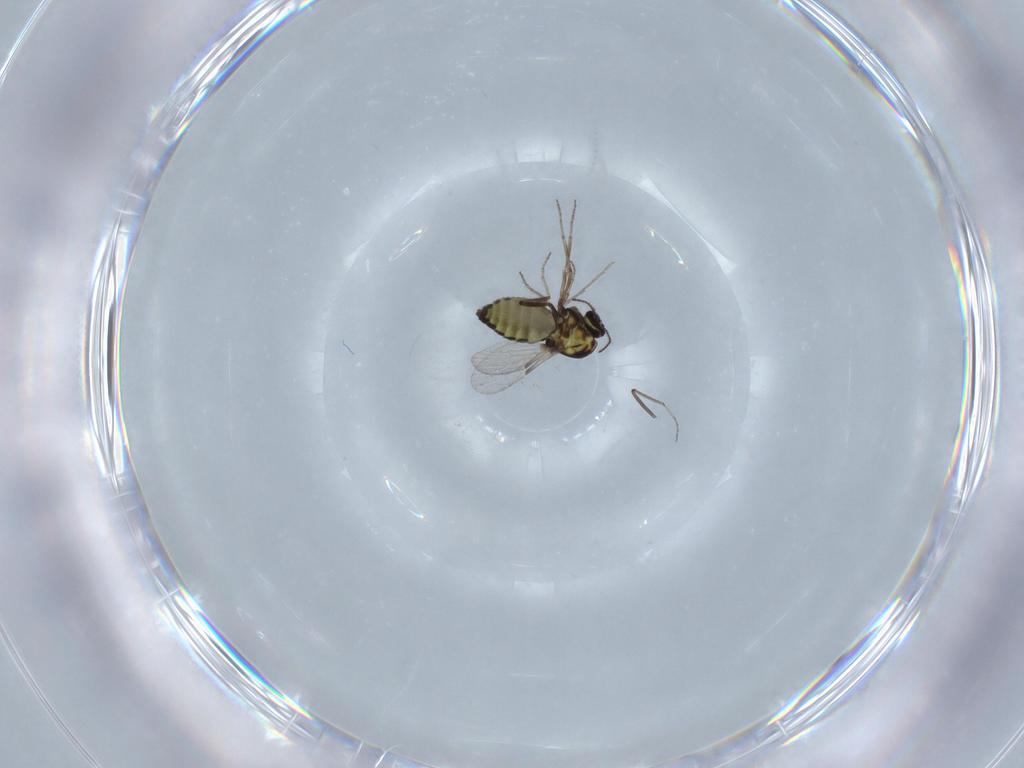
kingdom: Animalia
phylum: Arthropoda
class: Insecta
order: Diptera
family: Ceratopogonidae
